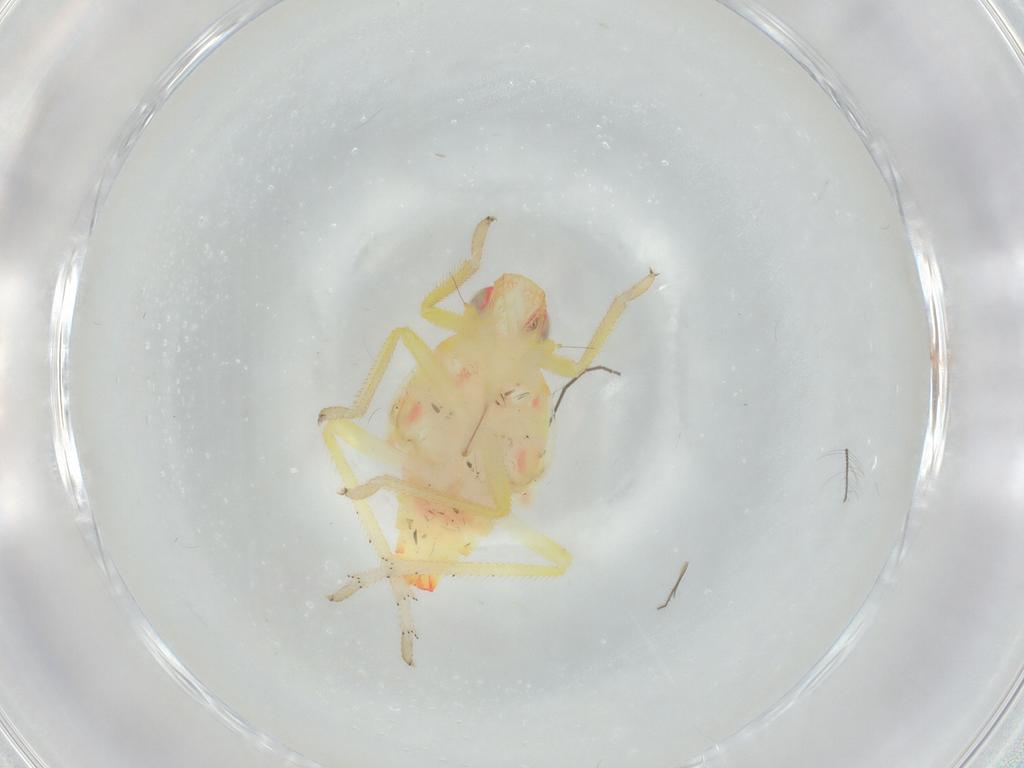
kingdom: Animalia
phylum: Arthropoda
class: Insecta
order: Hemiptera
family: Tropiduchidae
